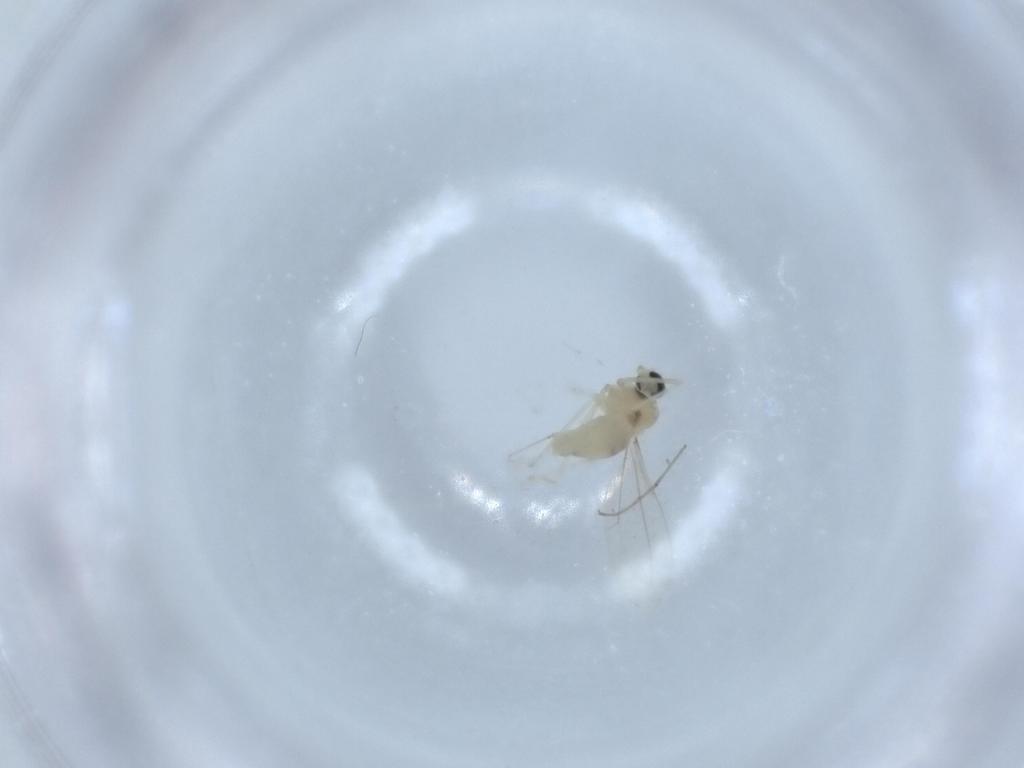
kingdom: Animalia
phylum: Arthropoda
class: Insecta
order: Diptera
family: Cecidomyiidae
